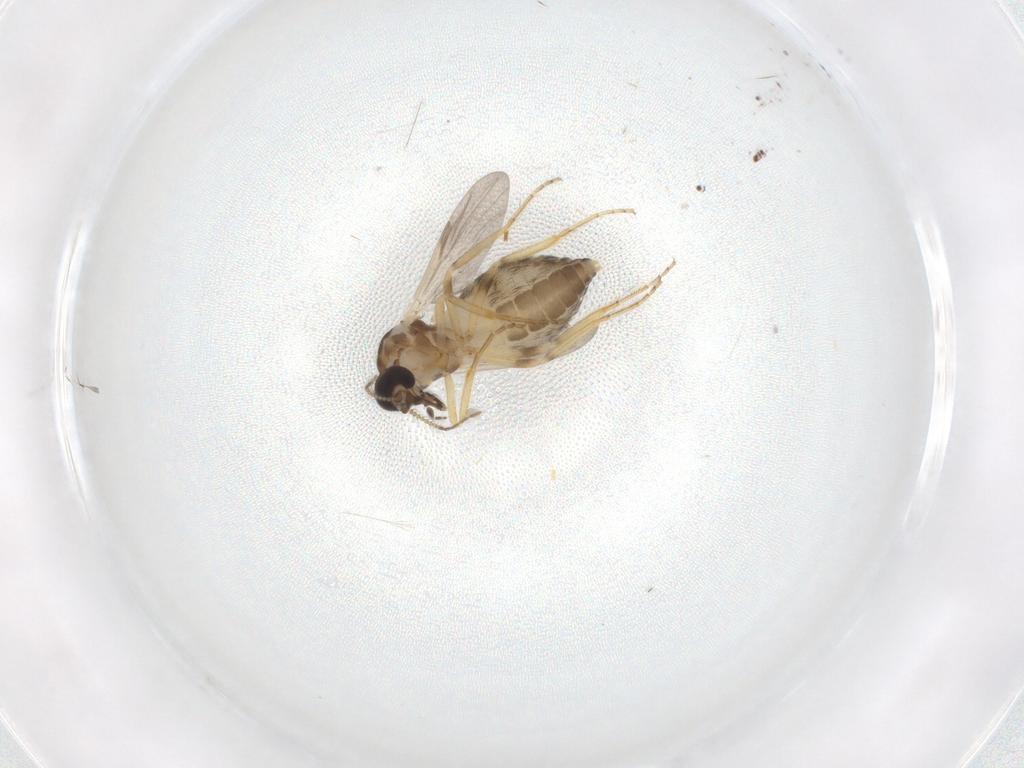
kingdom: Animalia
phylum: Arthropoda
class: Insecta
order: Diptera
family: Ceratopogonidae
